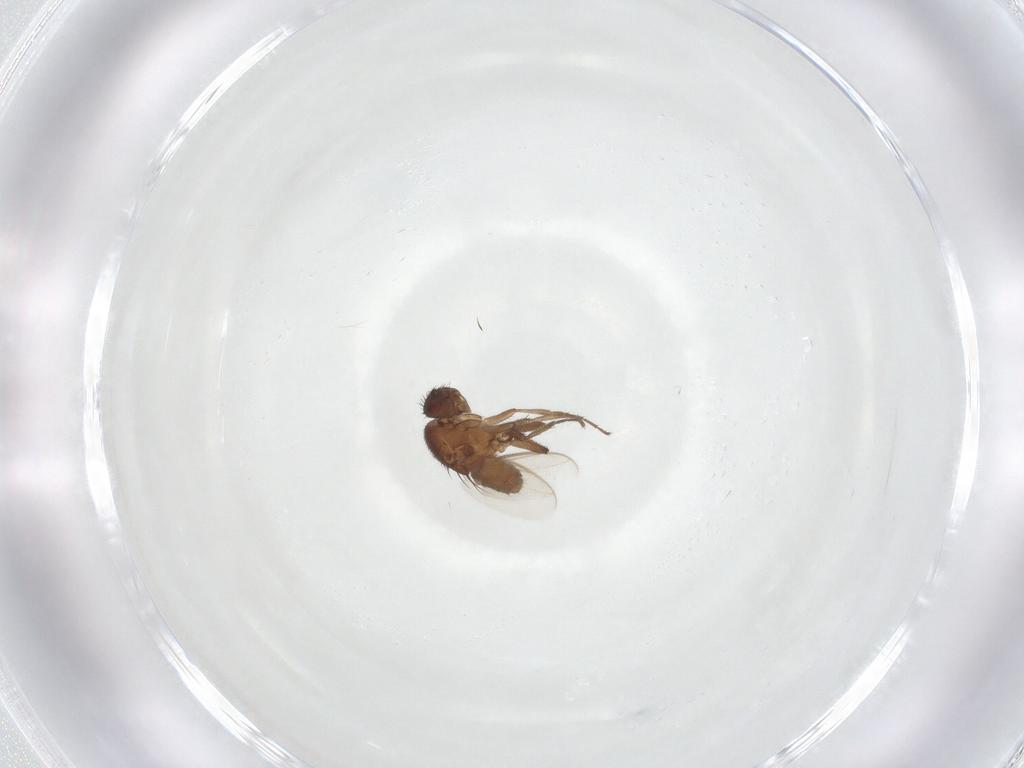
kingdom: Animalia
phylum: Arthropoda
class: Insecta
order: Diptera
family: Sphaeroceridae
